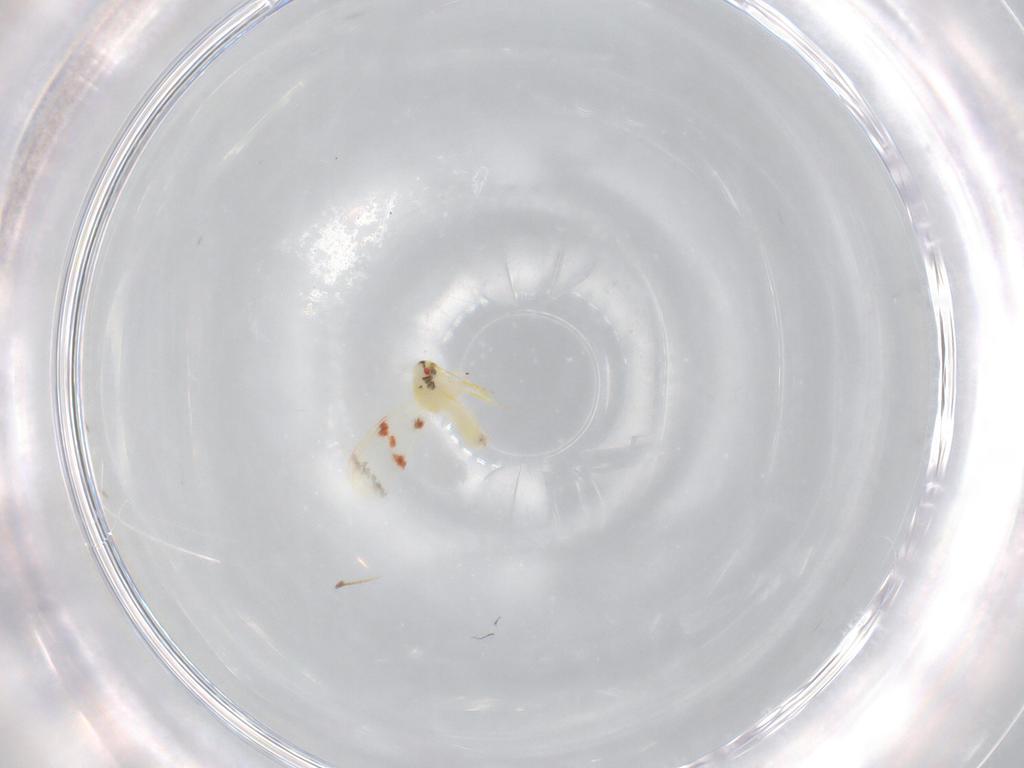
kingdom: Animalia
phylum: Arthropoda
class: Insecta
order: Hemiptera
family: Aleyrodidae
